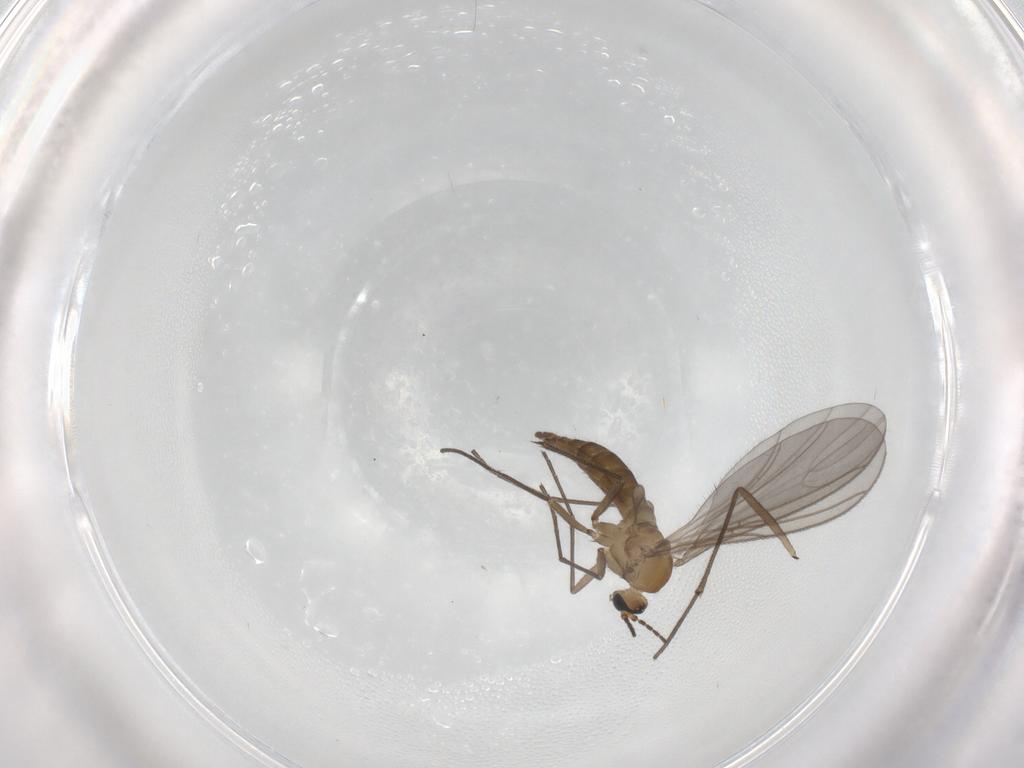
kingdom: Animalia
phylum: Arthropoda
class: Insecta
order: Diptera
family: Sciaridae
